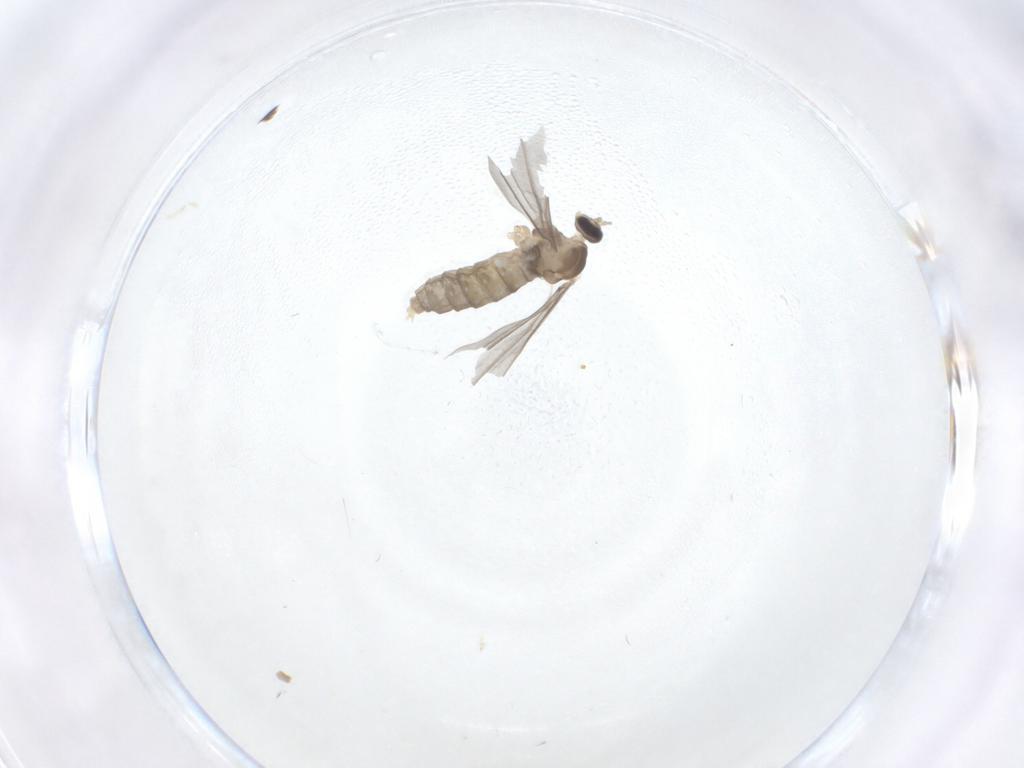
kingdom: Animalia
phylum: Arthropoda
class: Insecta
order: Diptera
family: Cecidomyiidae
